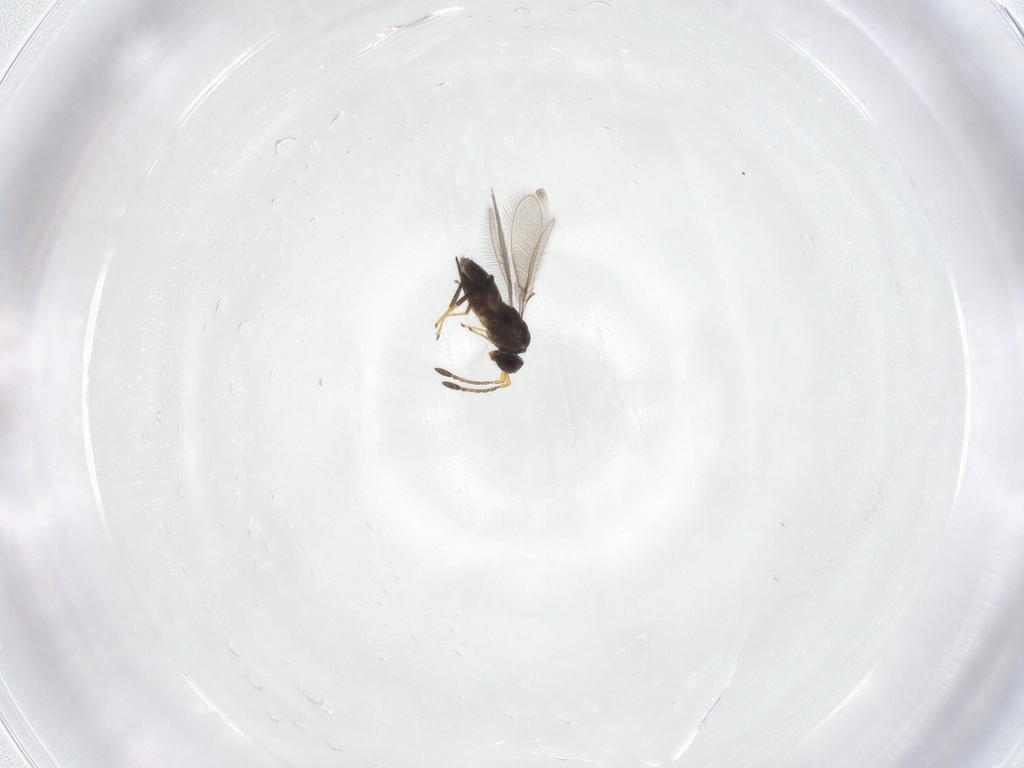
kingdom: Animalia
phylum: Arthropoda
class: Insecta
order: Hymenoptera
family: Mymaridae
